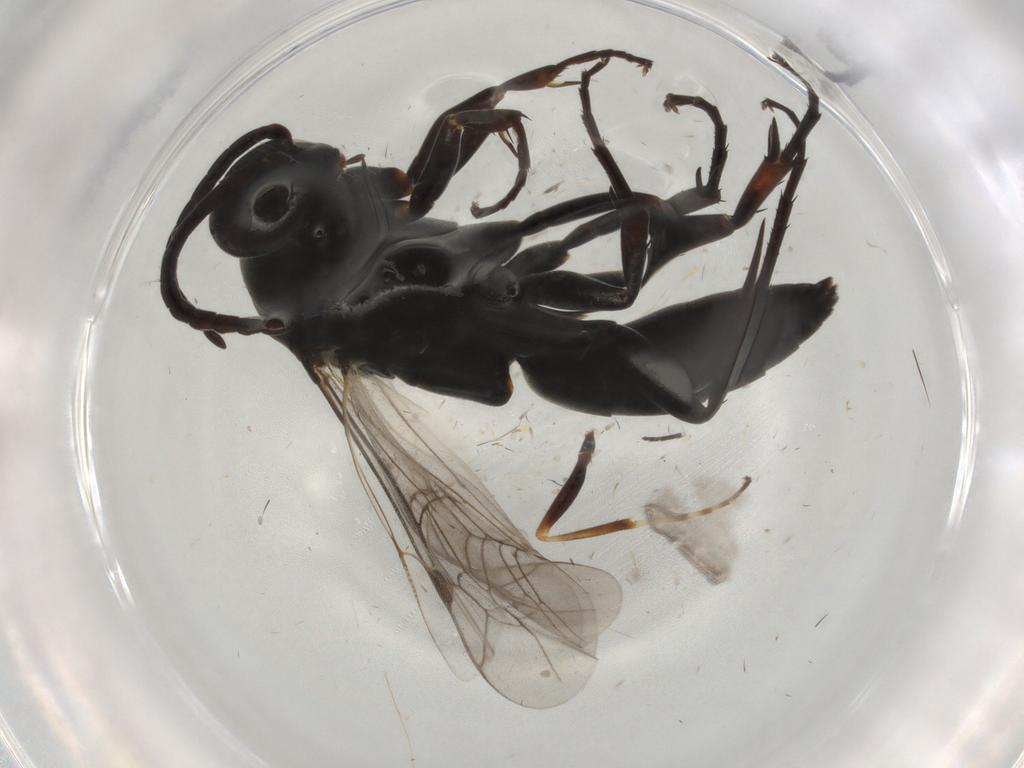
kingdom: Animalia
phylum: Arthropoda
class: Insecta
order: Hymenoptera
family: Pompilidae
